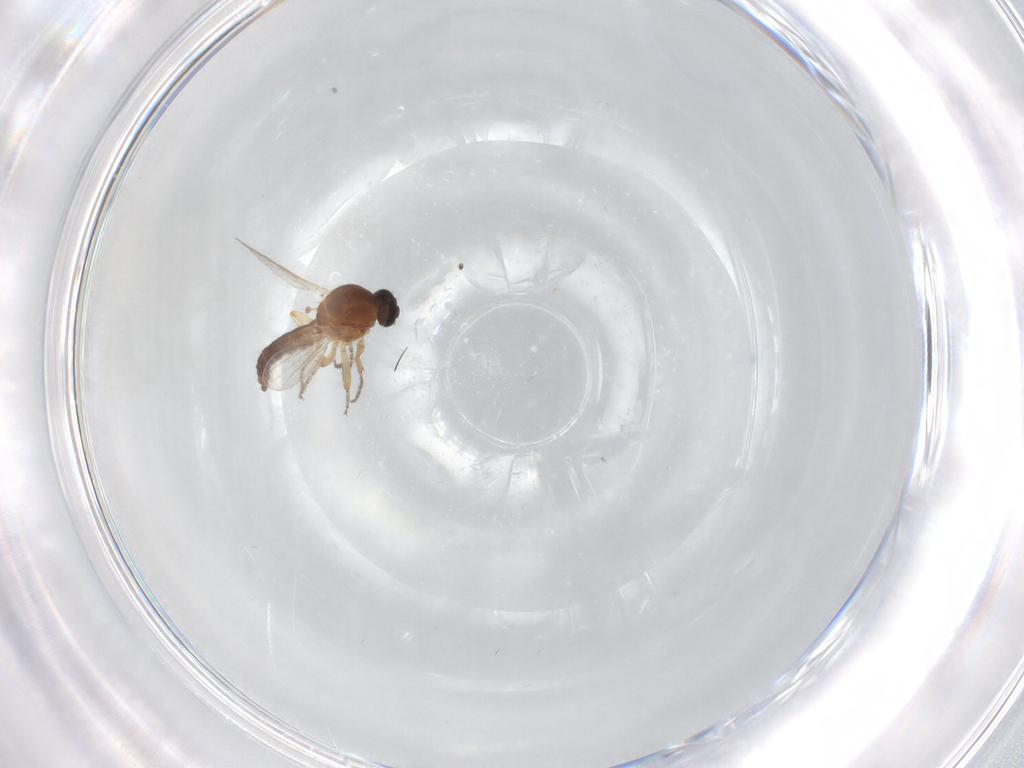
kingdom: Animalia
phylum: Arthropoda
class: Insecta
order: Diptera
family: Ceratopogonidae
